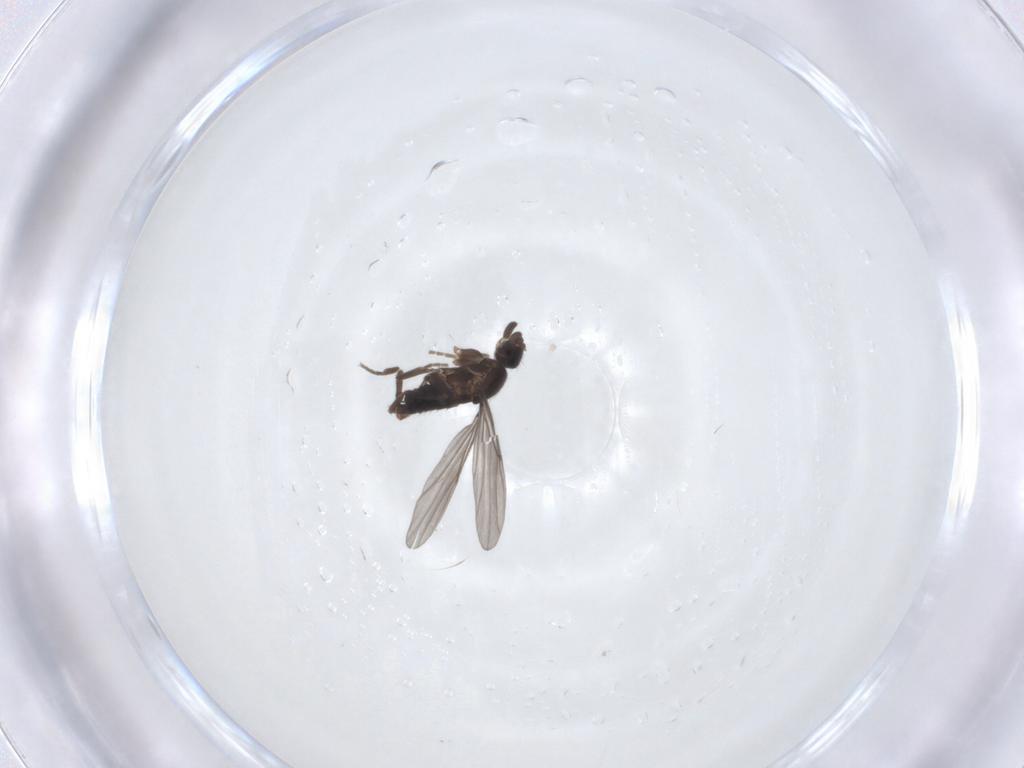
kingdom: Animalia
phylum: Arthropoda
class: Insecta
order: Diptera
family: Phoridae
